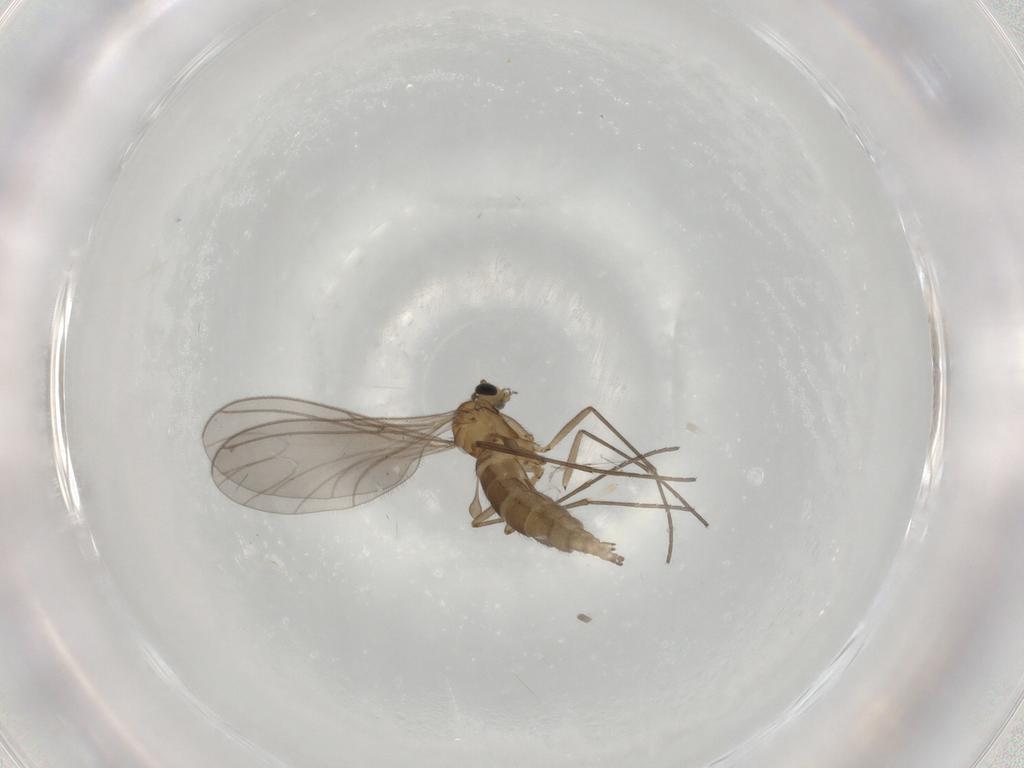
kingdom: Animalia
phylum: Arthropoda
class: Insecta
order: Diptera
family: Sciaridae
